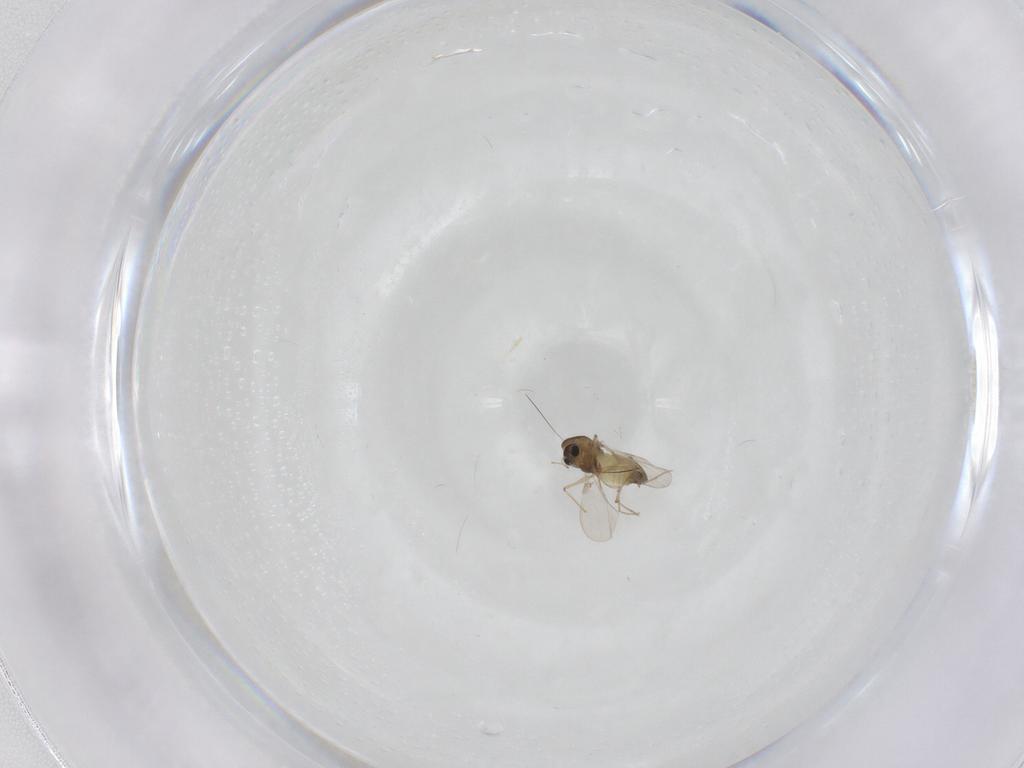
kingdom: Animalia
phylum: Arthropoda
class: Insecta
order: Diptera
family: Chironomidae
